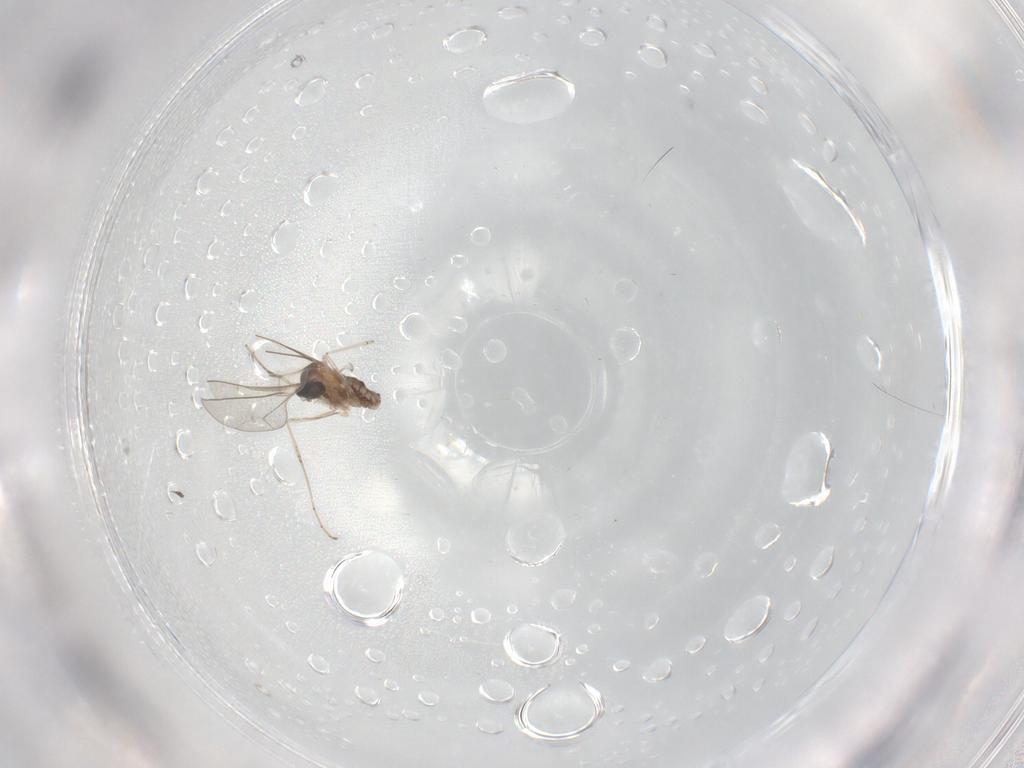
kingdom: Animalia
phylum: Arthropoda
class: Insecta
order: Diptera
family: Cecidomyiidae
